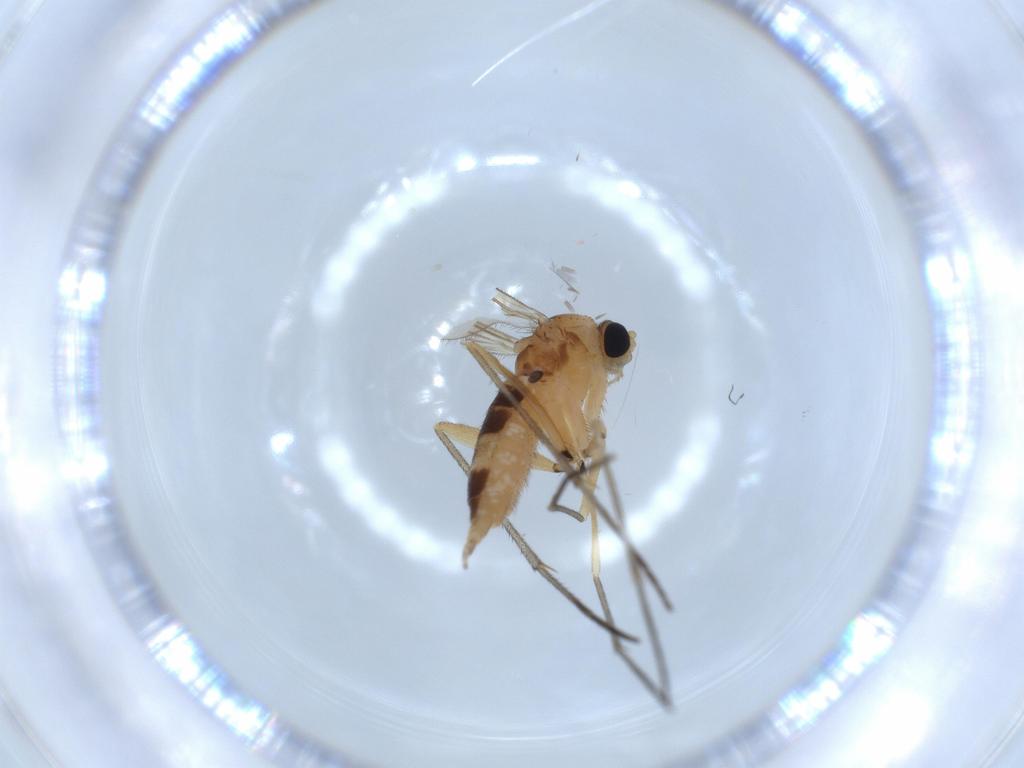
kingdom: Animalia
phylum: Arthropoda
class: Insecta
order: Diptera
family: Sciaridae
